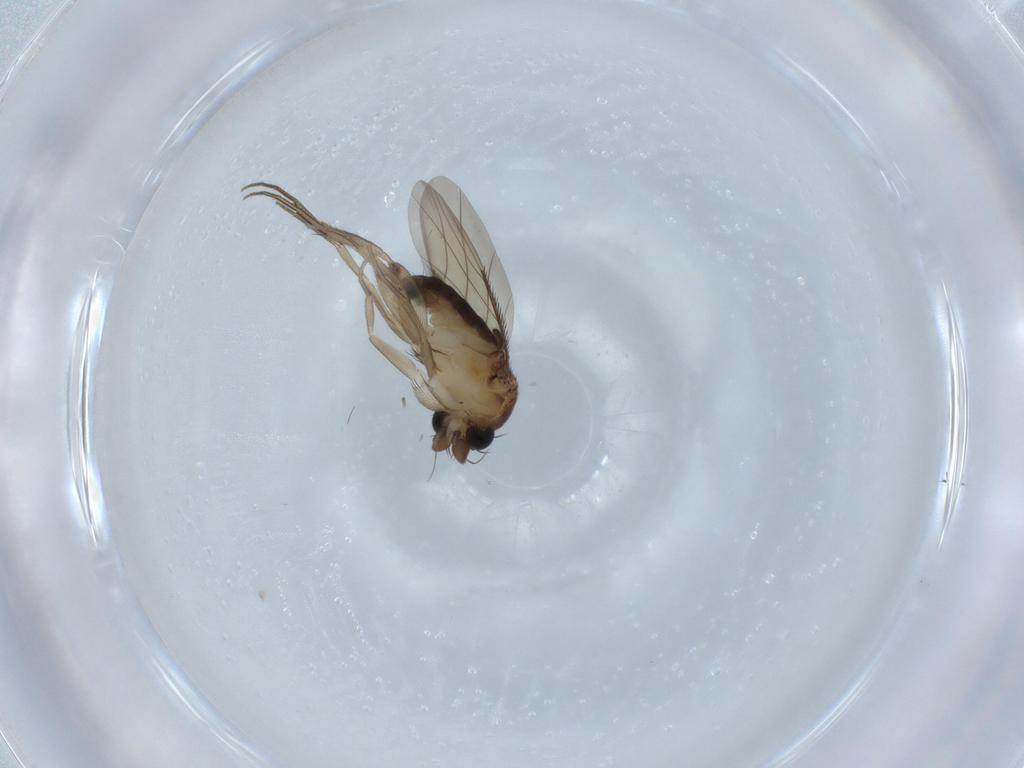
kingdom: Animalia
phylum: Arthropoda
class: Insecta
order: Diptera
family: Phoridae
